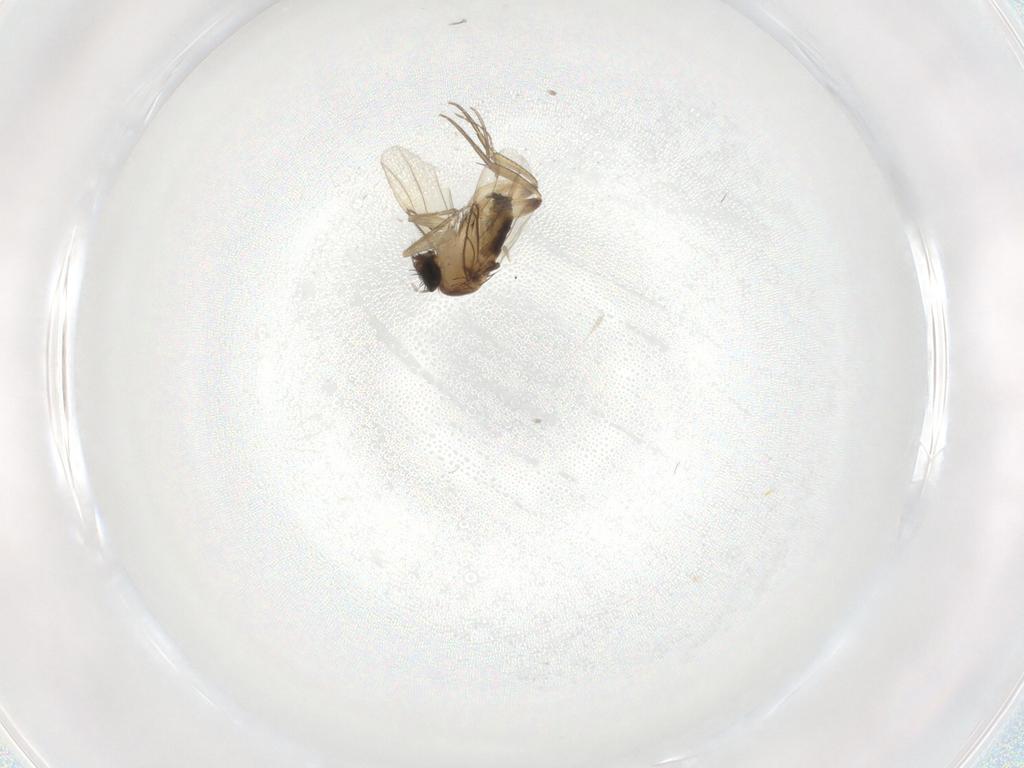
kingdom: Animalia
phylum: Arthropoda
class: Insecta
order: Diptera
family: Phoridae
